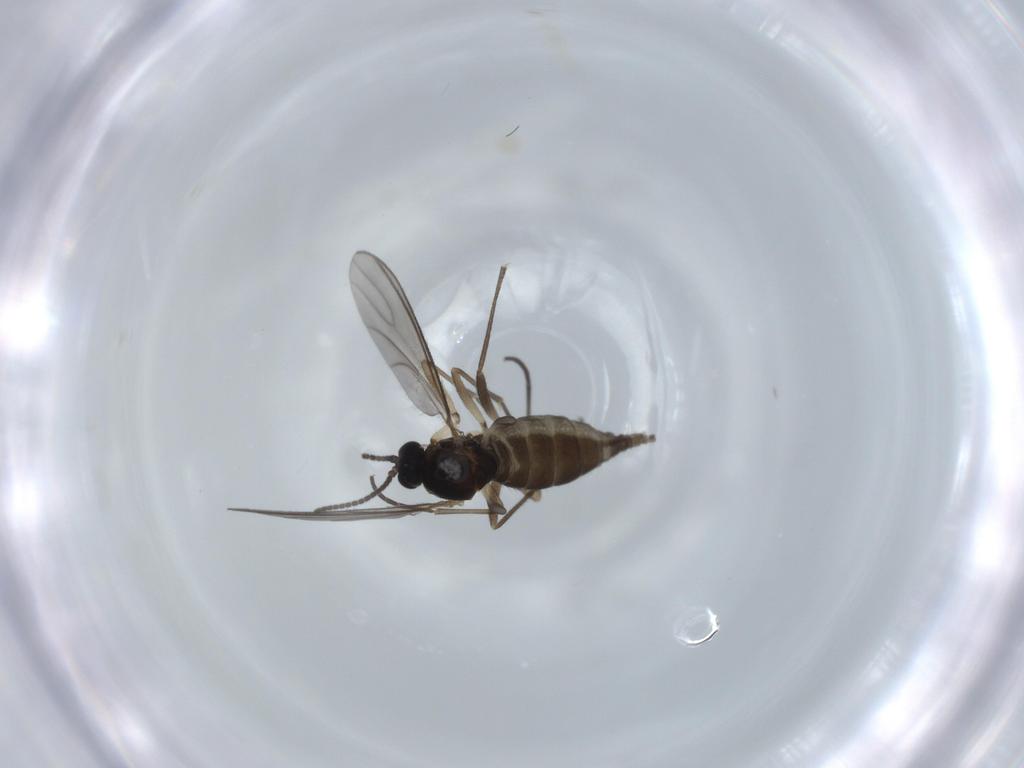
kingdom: Animalia
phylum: Arthropoda
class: Insecta
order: Diptera
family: Sciaridae
